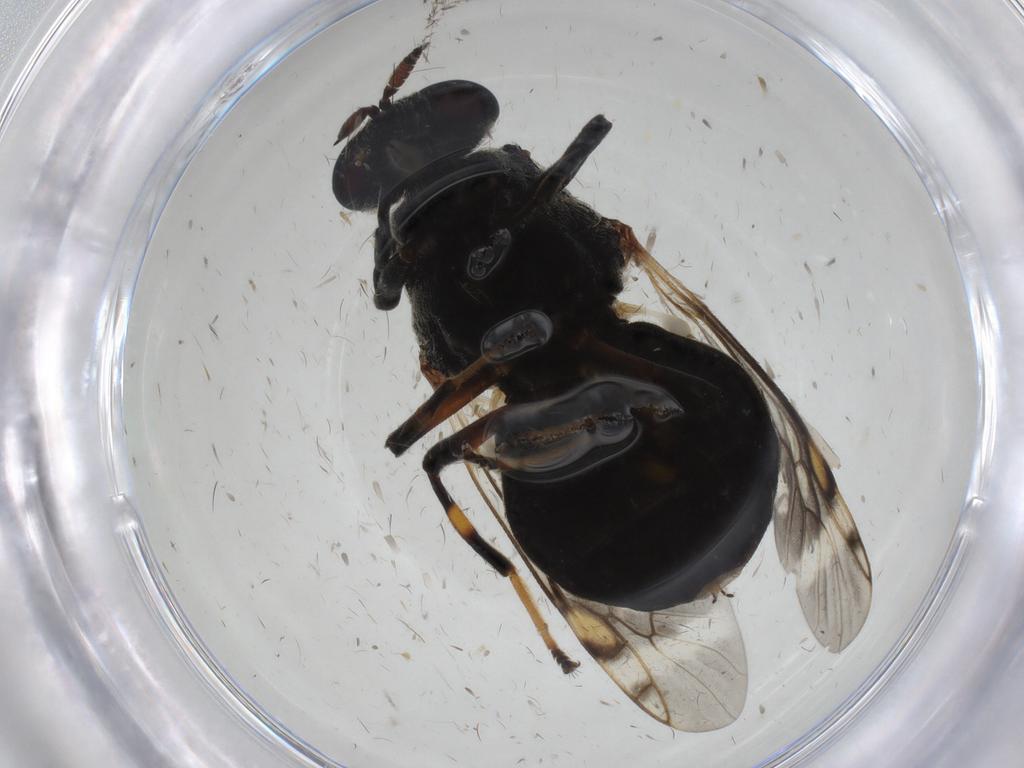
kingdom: Animalia
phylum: Arthropoda
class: Insecta
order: Diptera
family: Stratiomyidae
